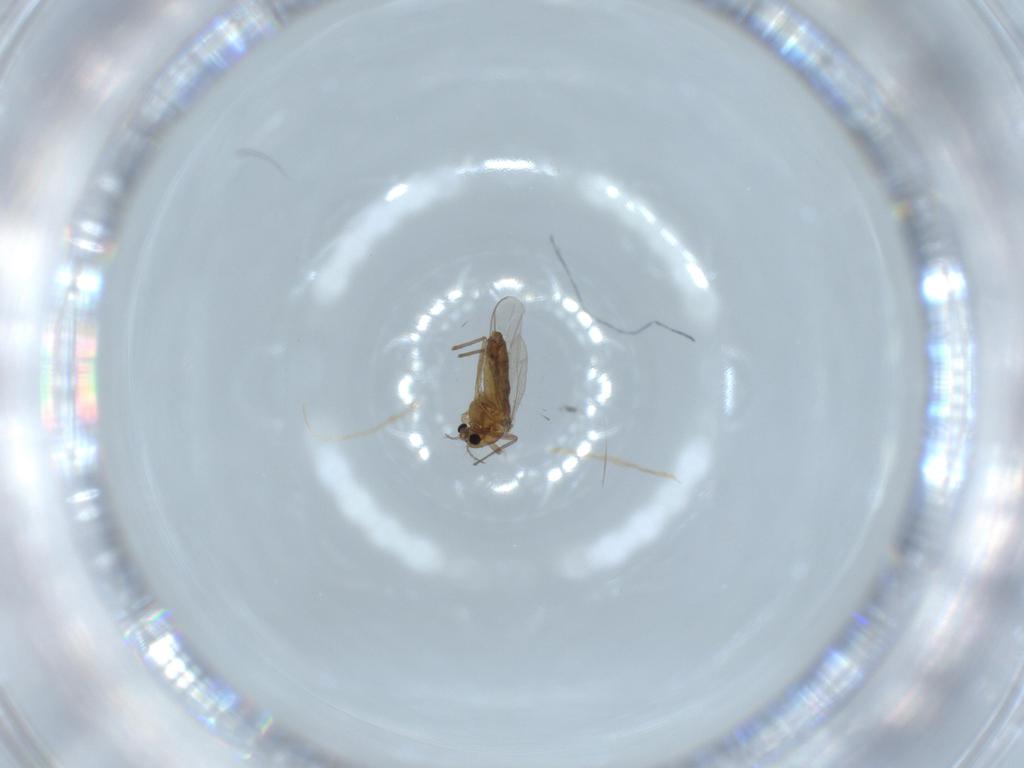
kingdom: Animalia
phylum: Arthropoda
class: Insecta
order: Diptera
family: Chironomidae
